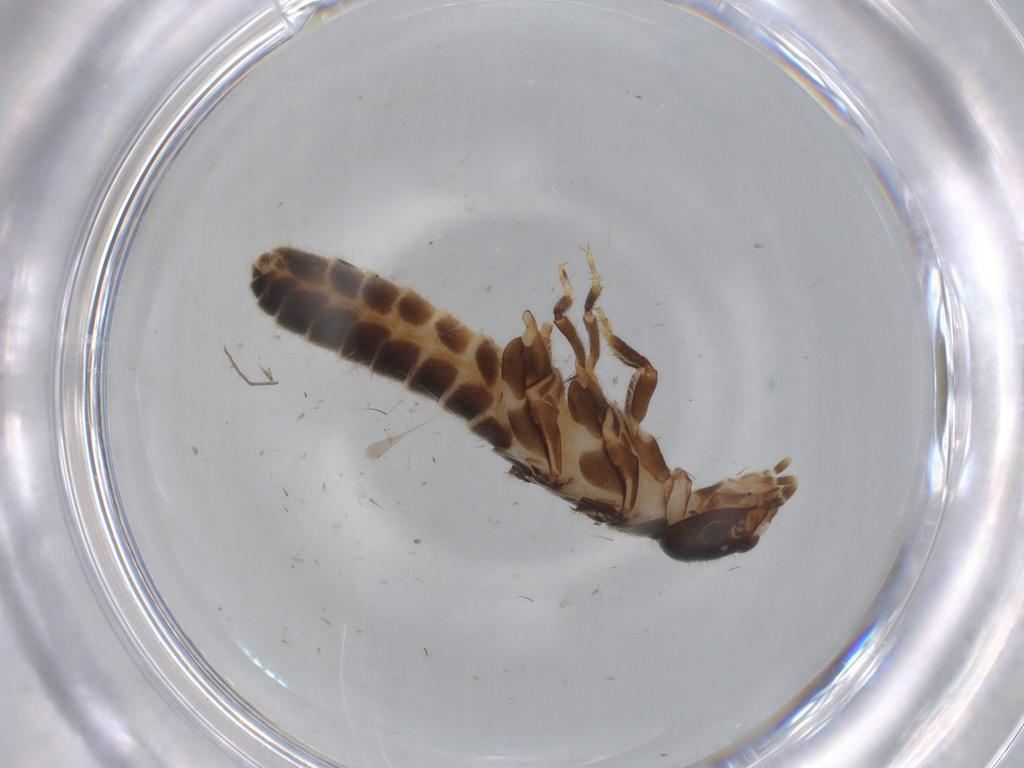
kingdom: Animalia
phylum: Arthropoda
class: Insecta
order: Blattodea
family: Termitidae
